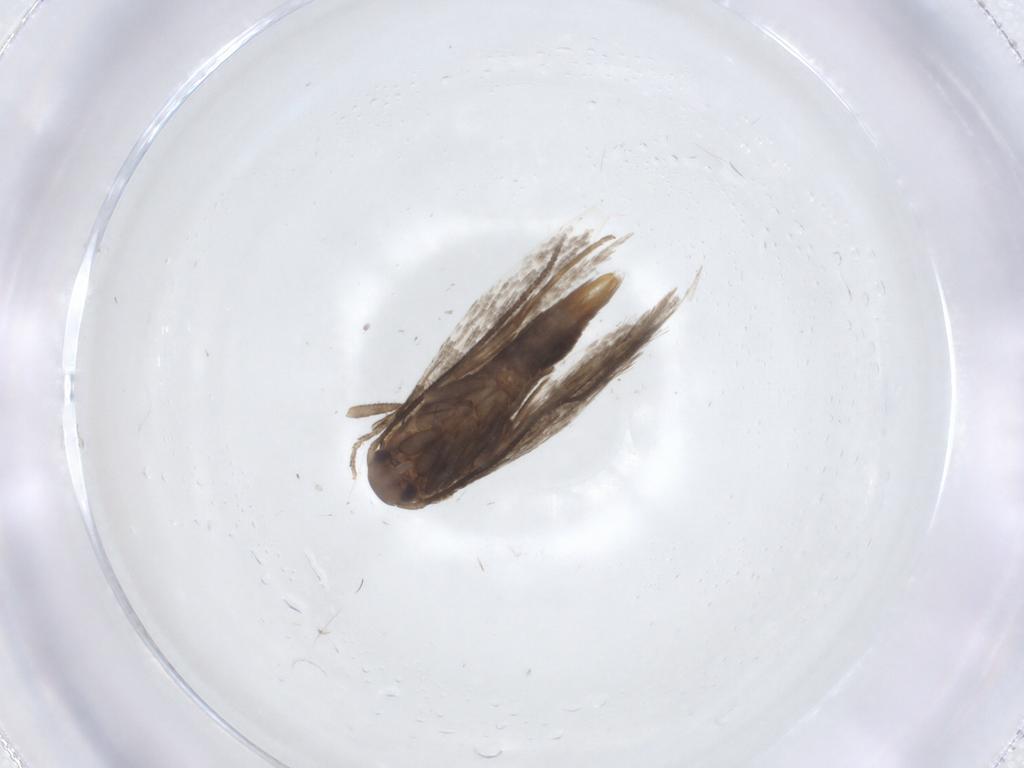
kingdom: Animalia
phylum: Arthropoda
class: Insecta
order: Lepidoptera
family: Elachistidae
